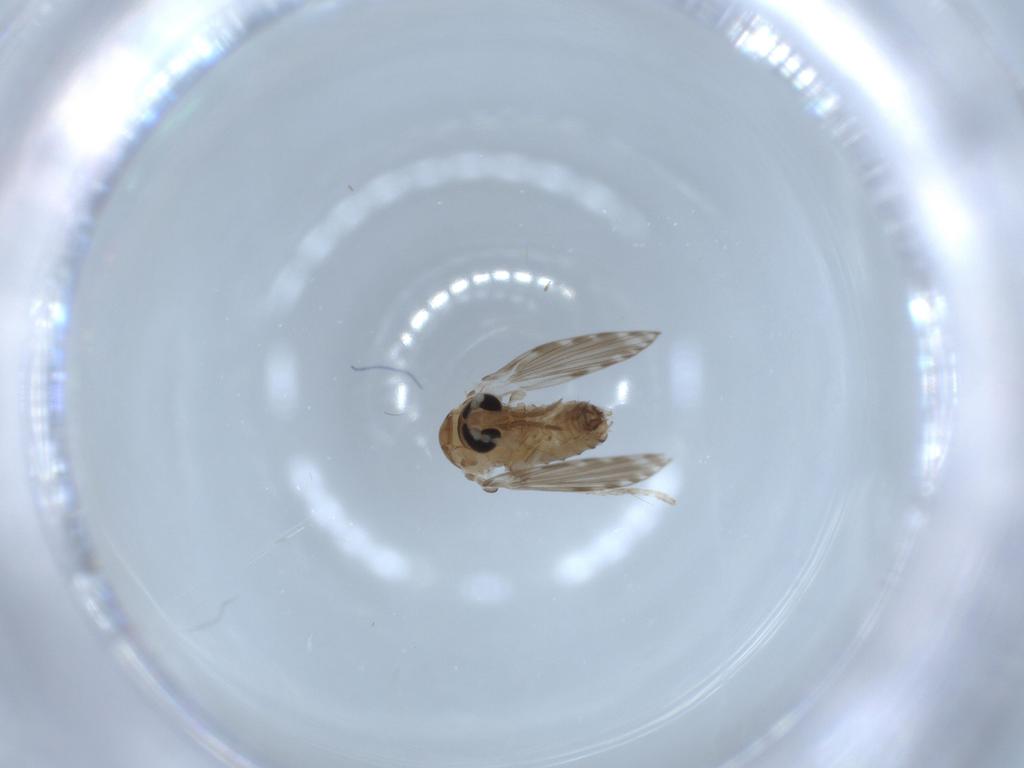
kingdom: Animalia
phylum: Arthropoda
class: Insecta
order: Diptera
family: Psychodidae
